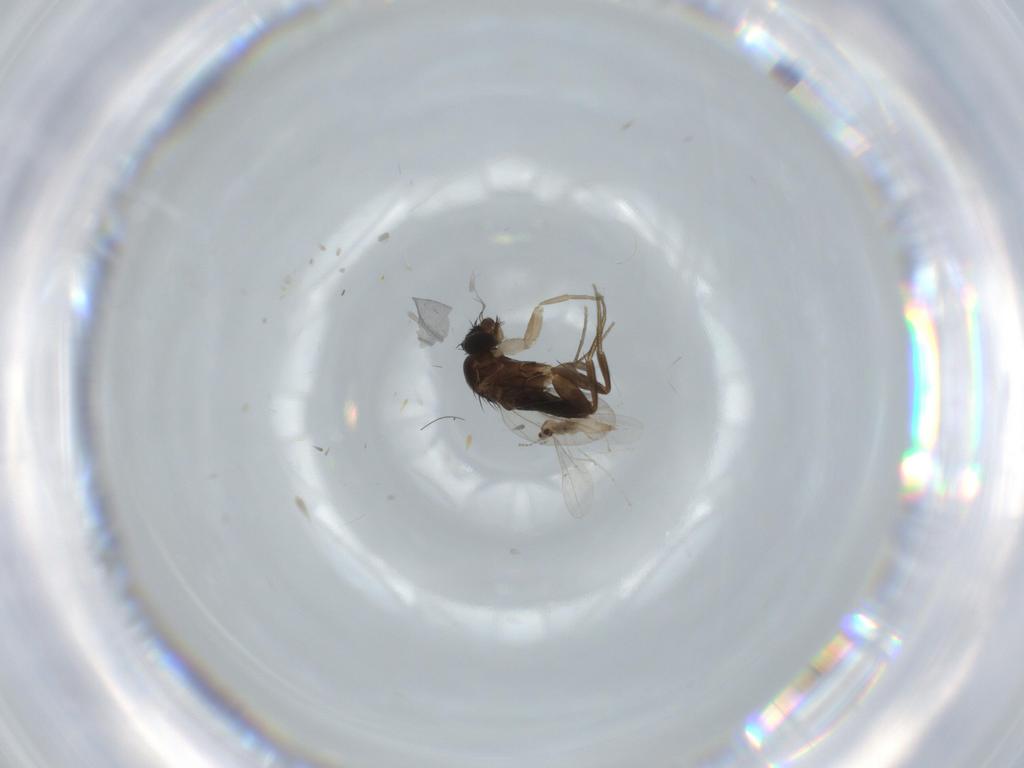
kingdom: Animalia
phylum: Arthropoda
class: Insecta
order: Diptera
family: Phoridae
